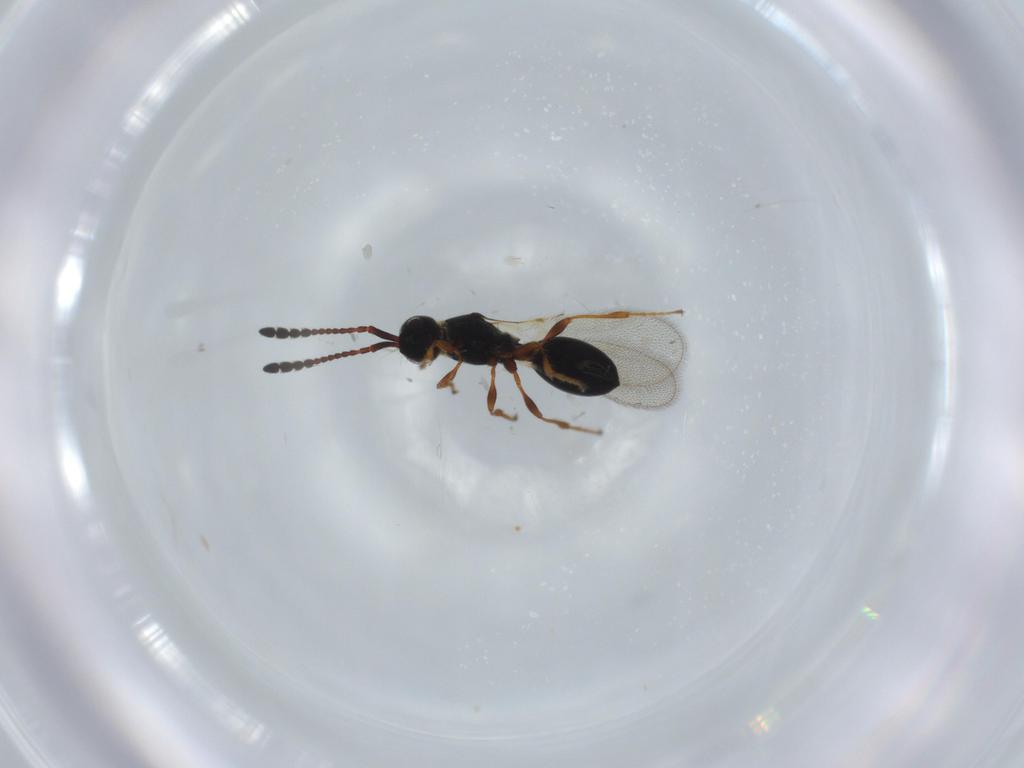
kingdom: Animalia
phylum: Arthropoda
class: Insecta
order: Hymenoptera
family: Diapriidae
